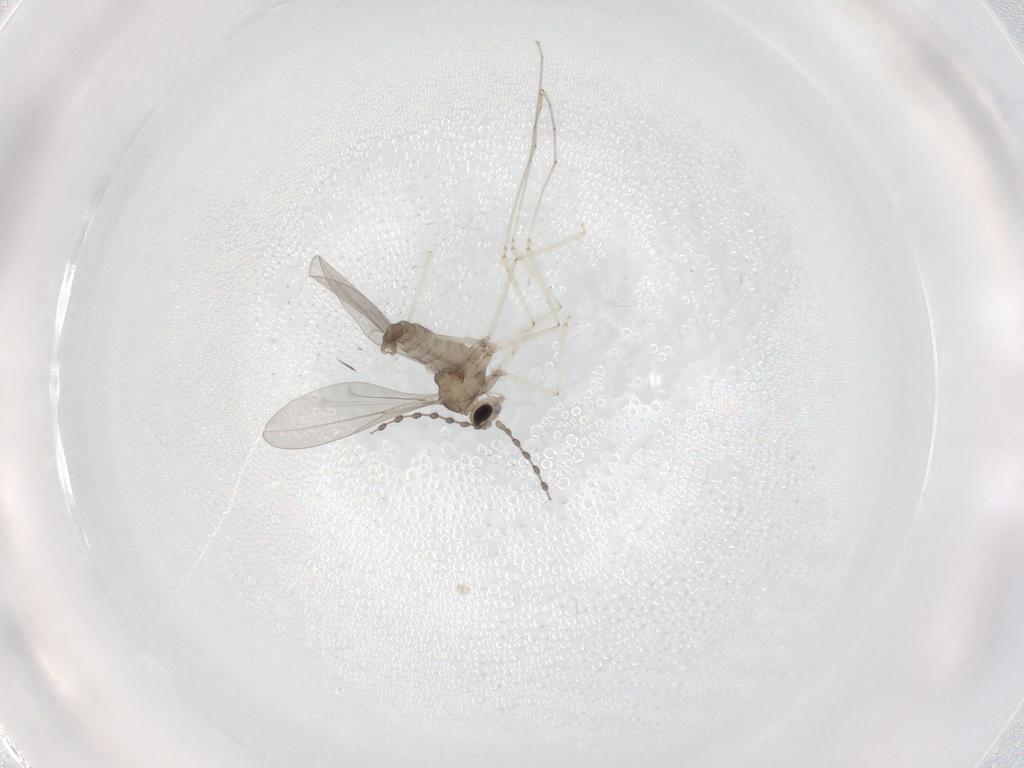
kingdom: Animalia
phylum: Arthropoda
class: Insecta
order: Diptera
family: Cecidomyiidae
